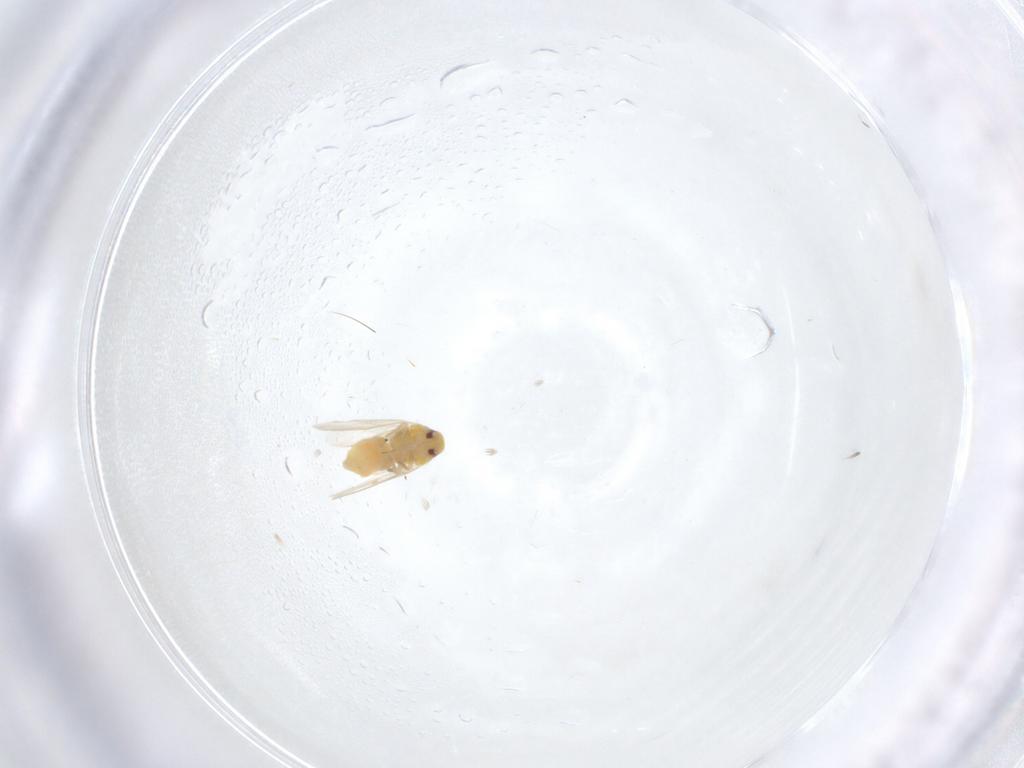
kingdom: Animalia
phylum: Arthropoda
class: Insecta
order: Hemiptera
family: Aleyrodidae
